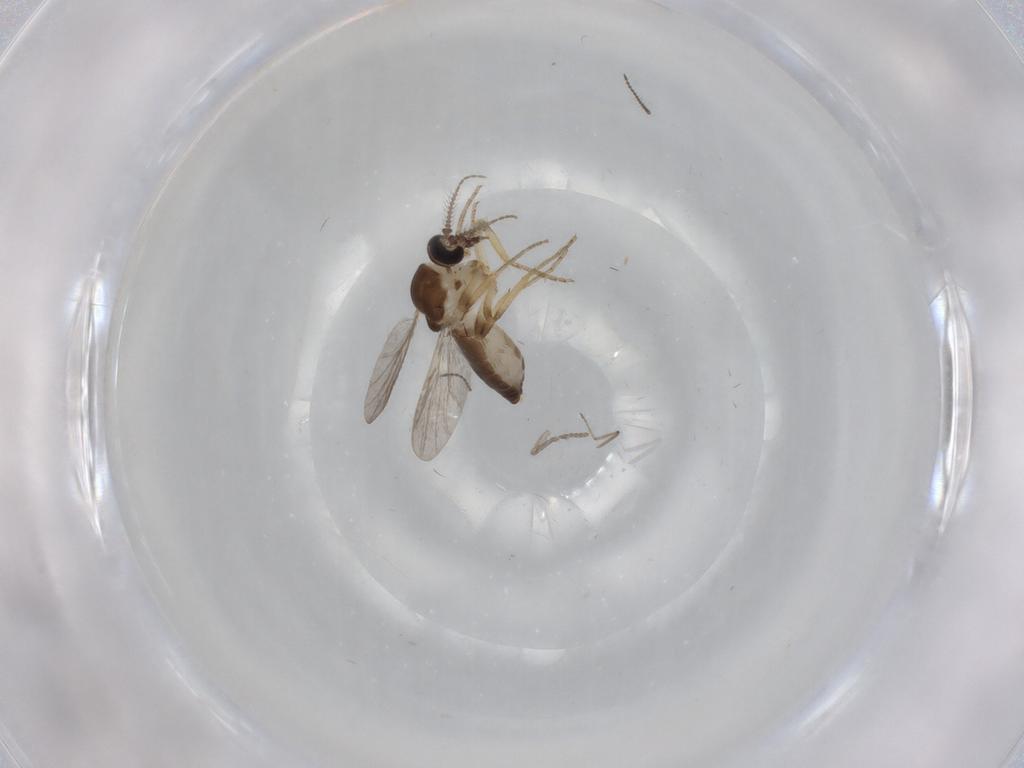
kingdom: Animalia
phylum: Arthropoda
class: Insecta
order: Diptera
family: Ceratopogonidae
